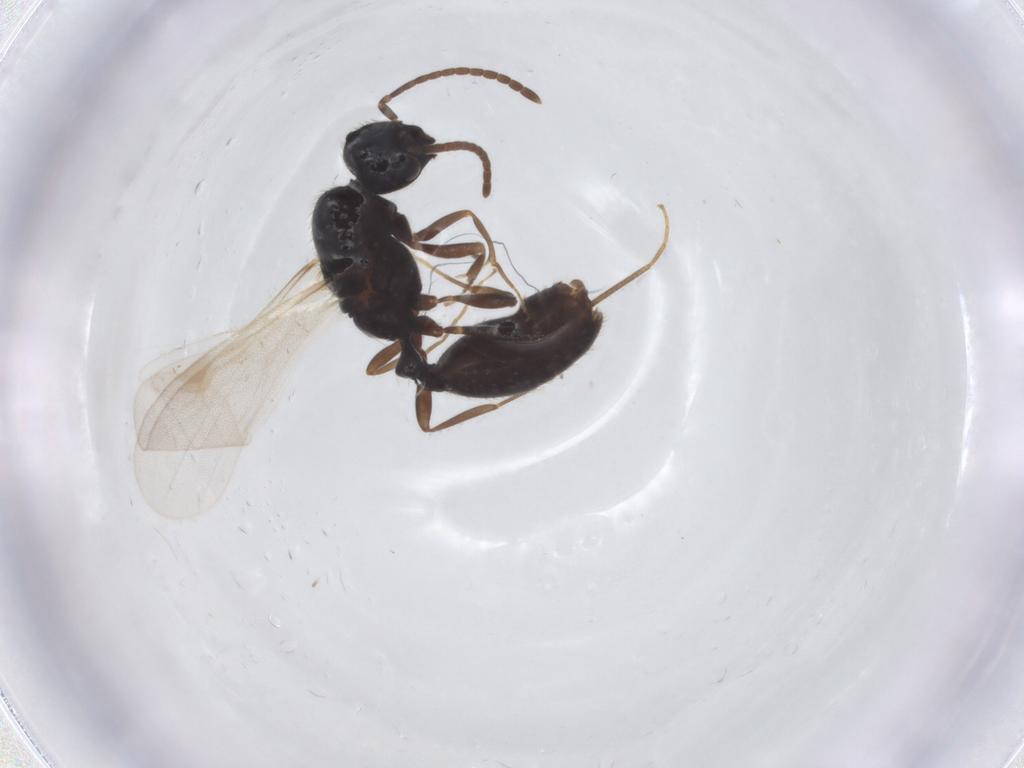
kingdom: Animalia
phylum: Arthropoda
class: Insecta
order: Hymenoptera
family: Formicidae
